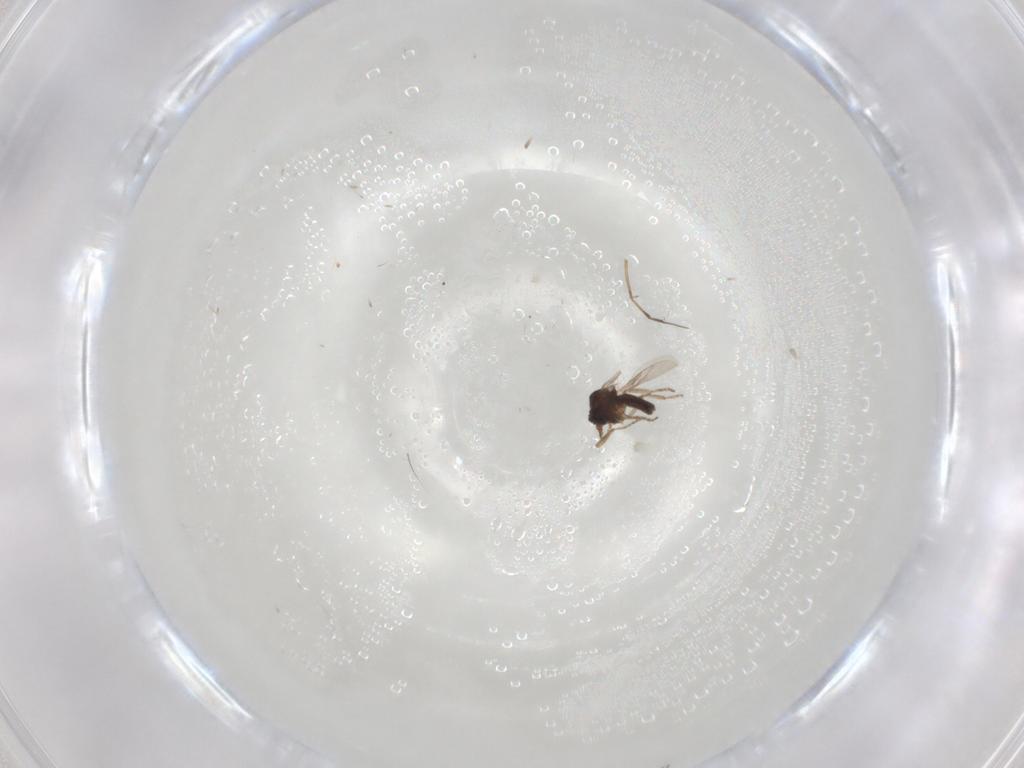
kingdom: Animalia
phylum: Arthropoda
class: Insecta
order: Diptera
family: Ceratopogonidae
